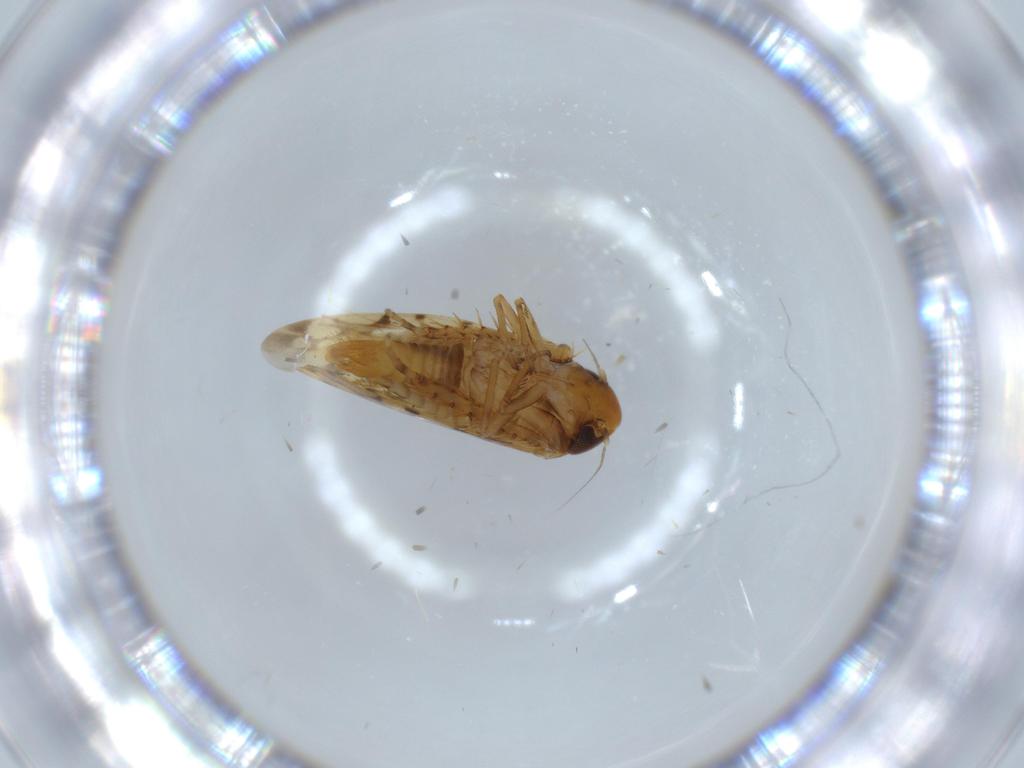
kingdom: Animalia
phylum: Arthropoda
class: Insecta
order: Hemiptera
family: Cicadellidae
